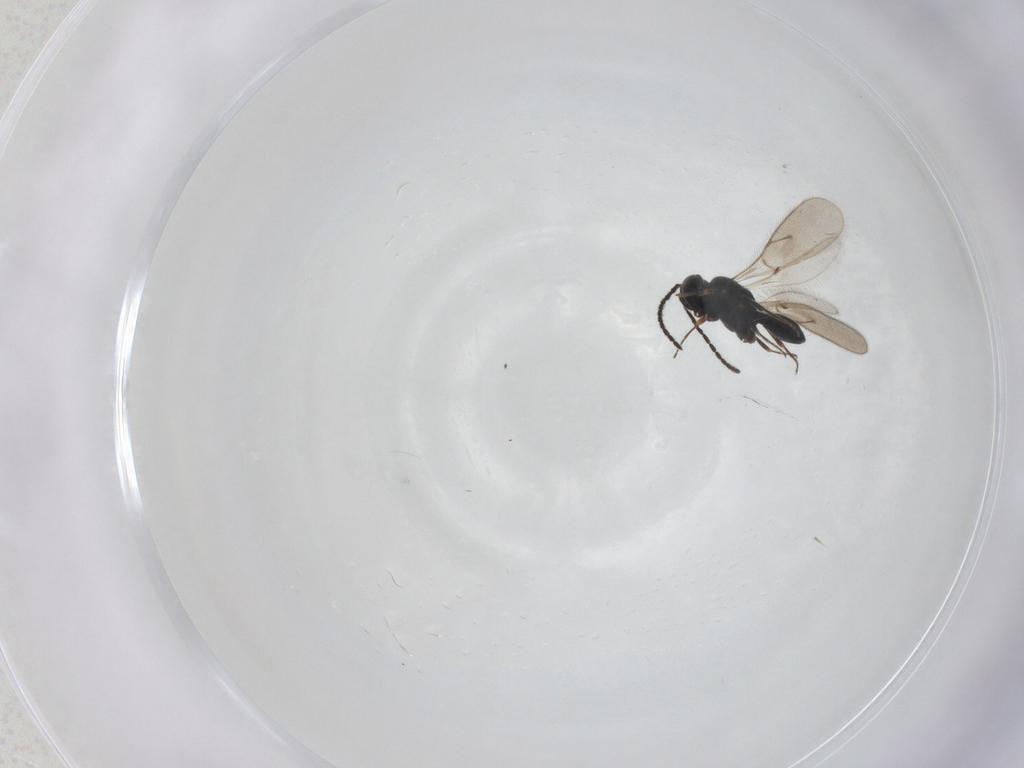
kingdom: Animalia
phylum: Arthropoda
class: Insecta
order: Hymenoptera
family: Scelionidae
